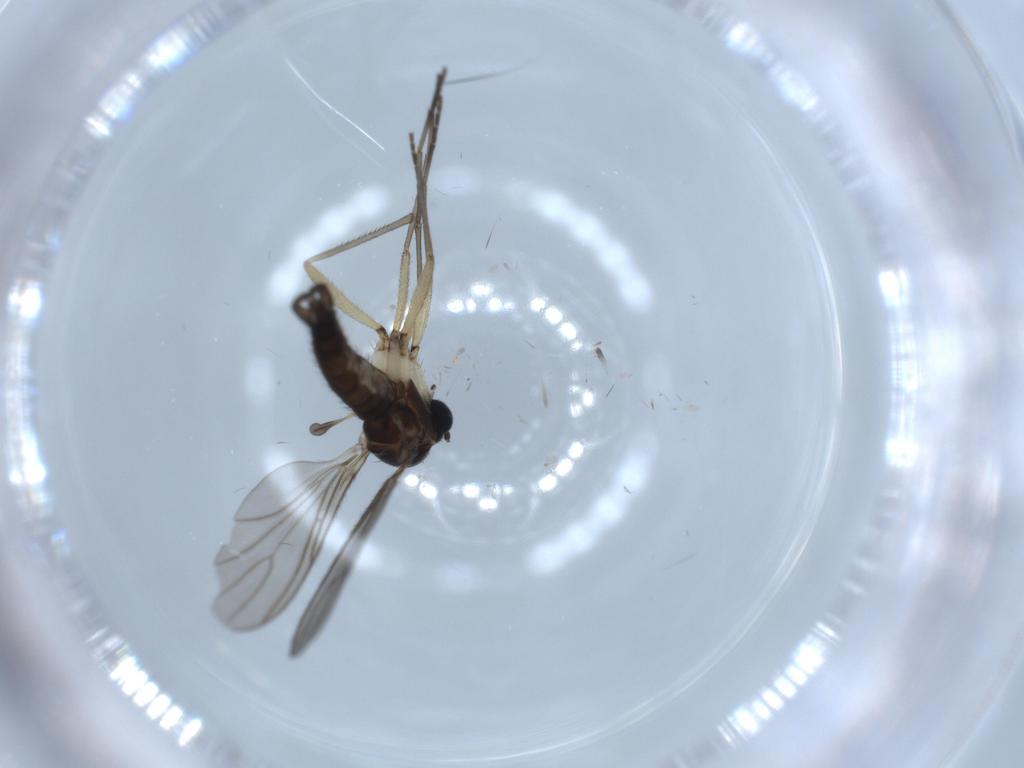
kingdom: Animalia
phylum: Arthropoda
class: Insecta
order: Diptera
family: Sciaridae
